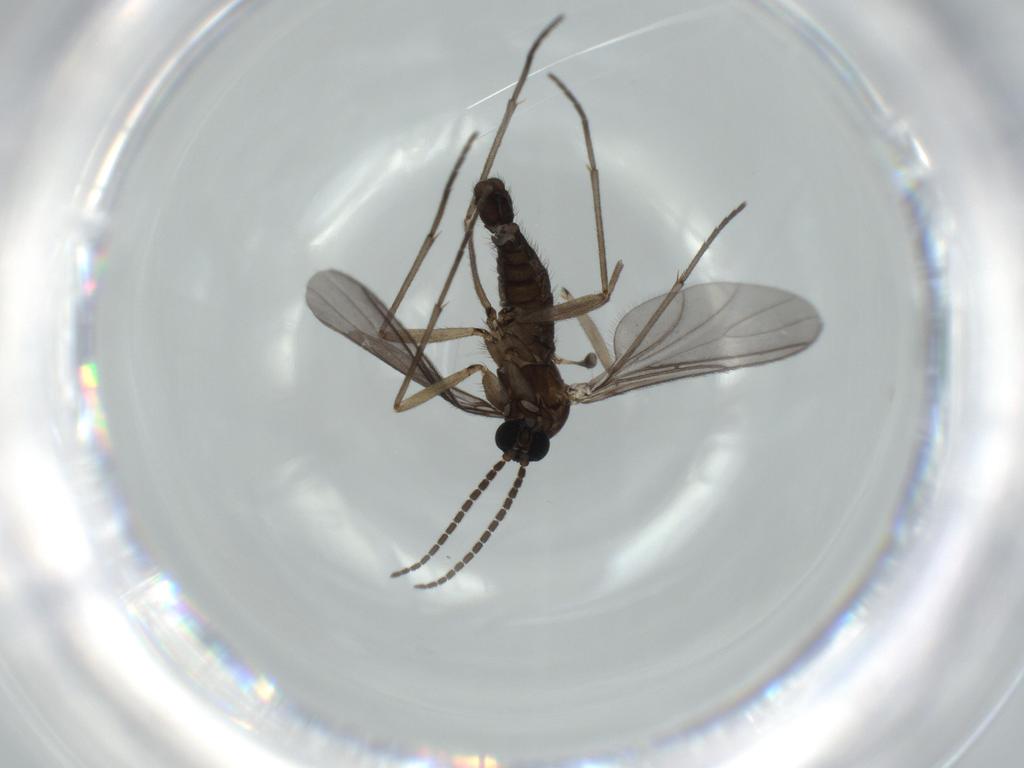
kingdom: Animalia
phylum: Arthropoda
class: Insecta
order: Diptera
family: Sciaridae
